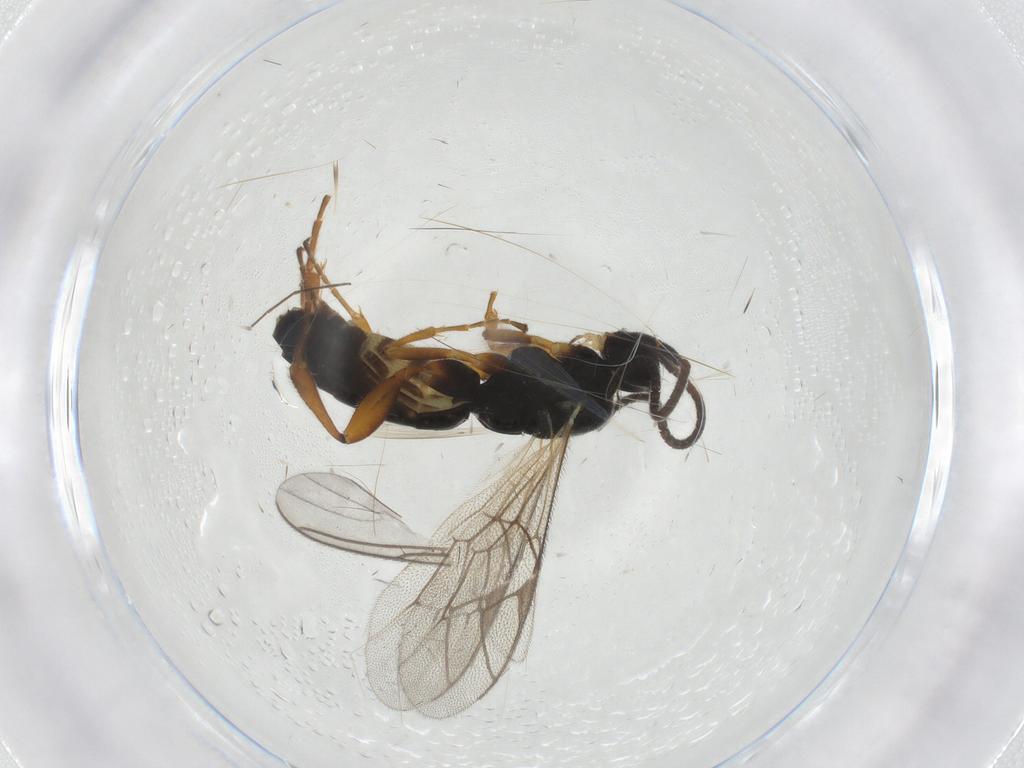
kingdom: Animalia
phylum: Arthropoda
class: Insecta
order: Hymenoptera
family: Ichneumonidae
